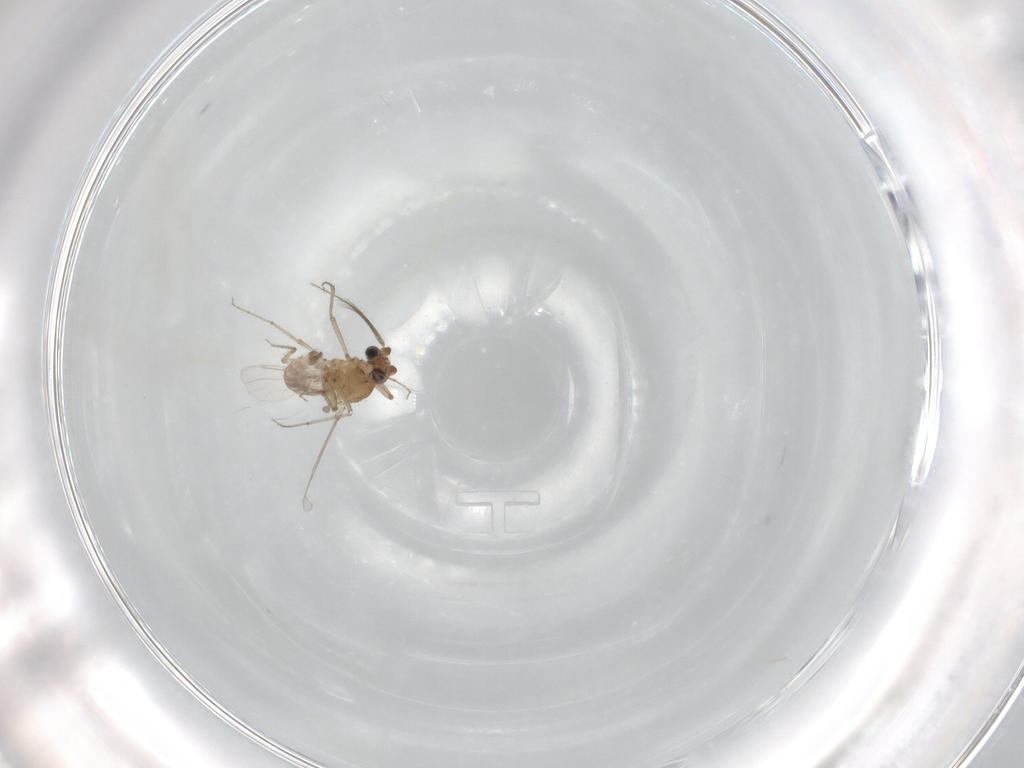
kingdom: Animalia
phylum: Arthropoda
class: Insecta
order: Diptera
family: Ceratopogonidae
